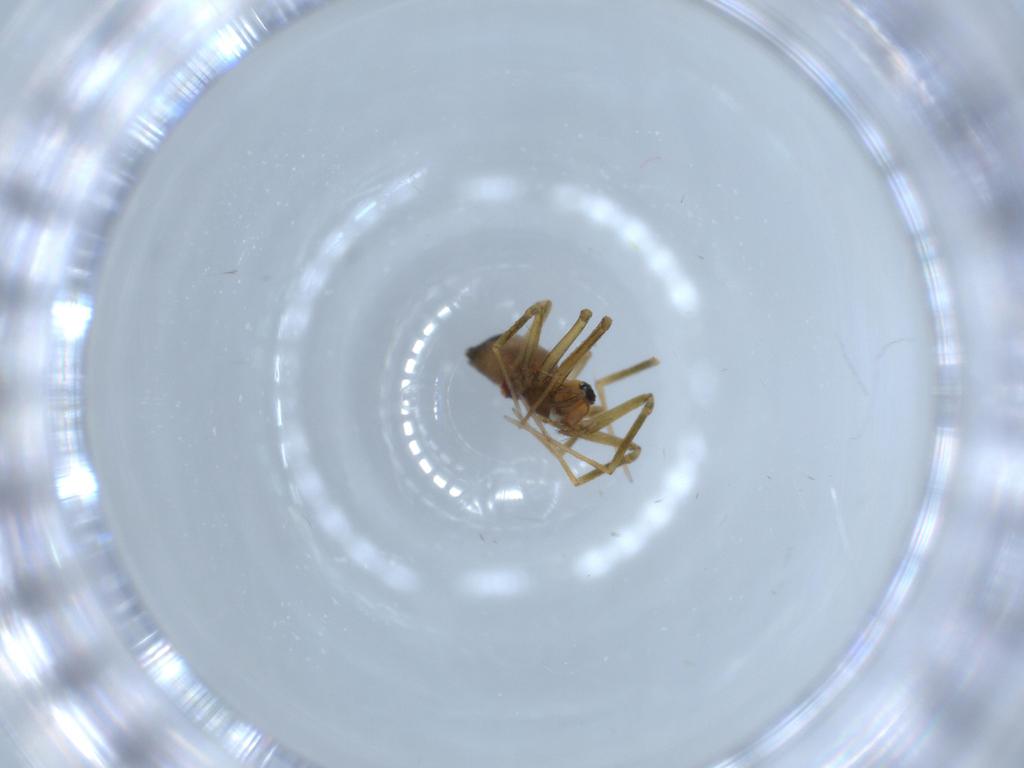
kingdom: Animalia
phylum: Arthropoda
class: Arachnida
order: Araneae
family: Linyphiidae
